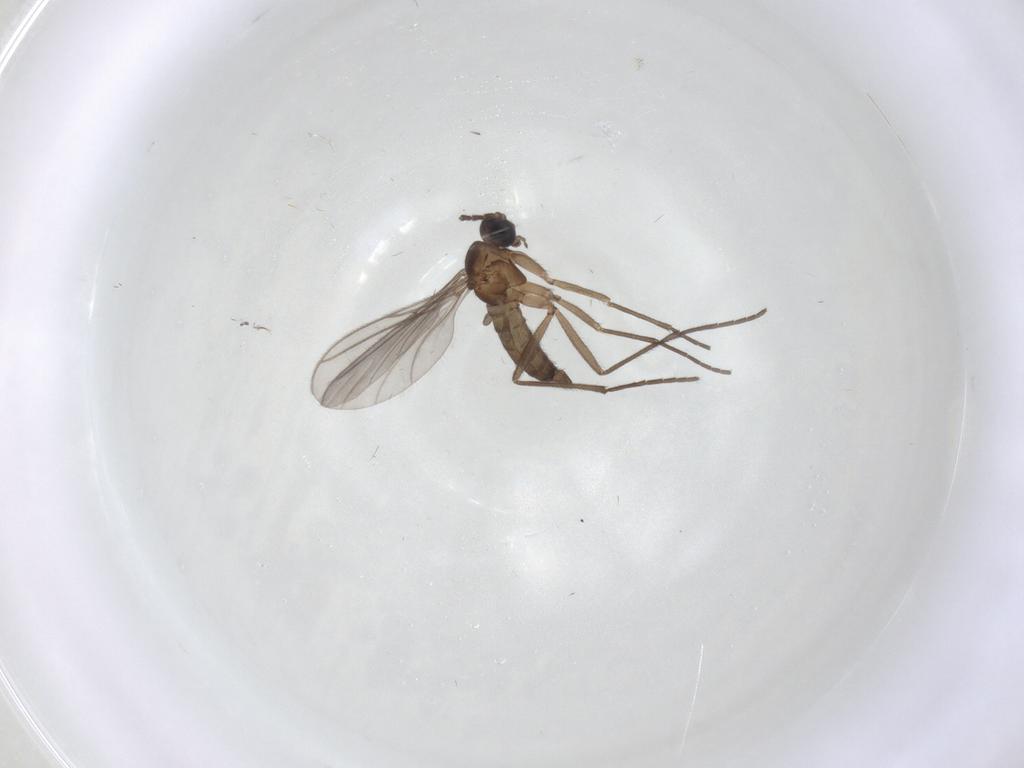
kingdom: Animalia
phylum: Arthropoda
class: Insecta
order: Diptera
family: Sciaridae
